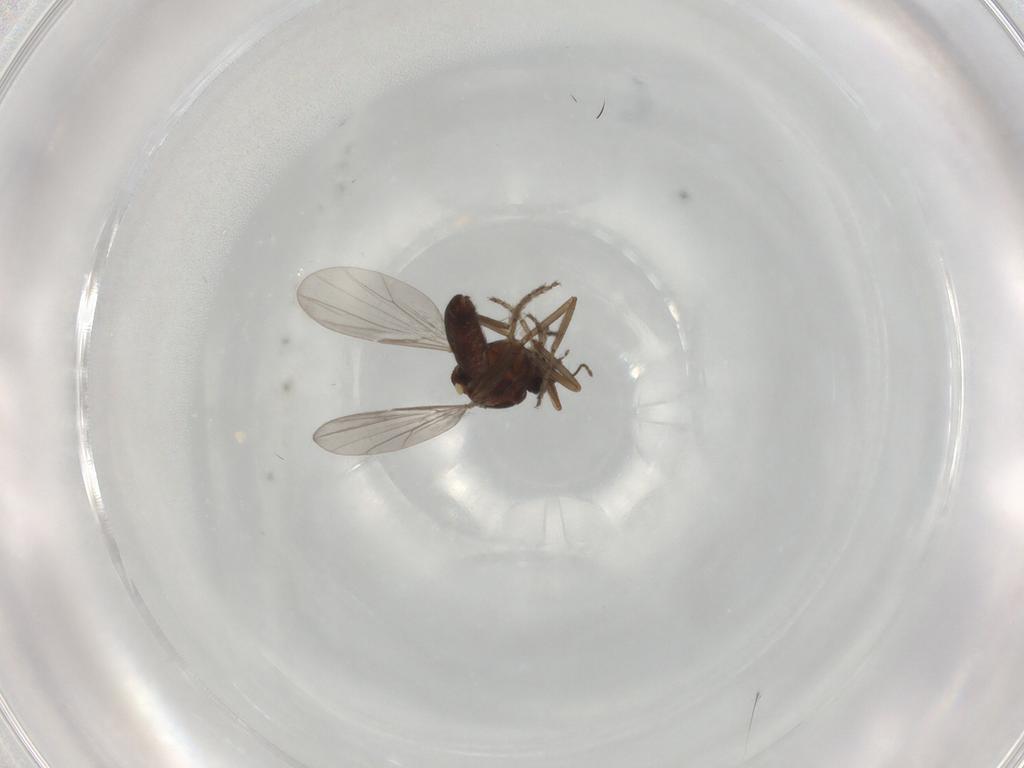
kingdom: Animalia
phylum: Arthropoda
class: Insecta
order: Diptera
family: Ceratopogonidae
